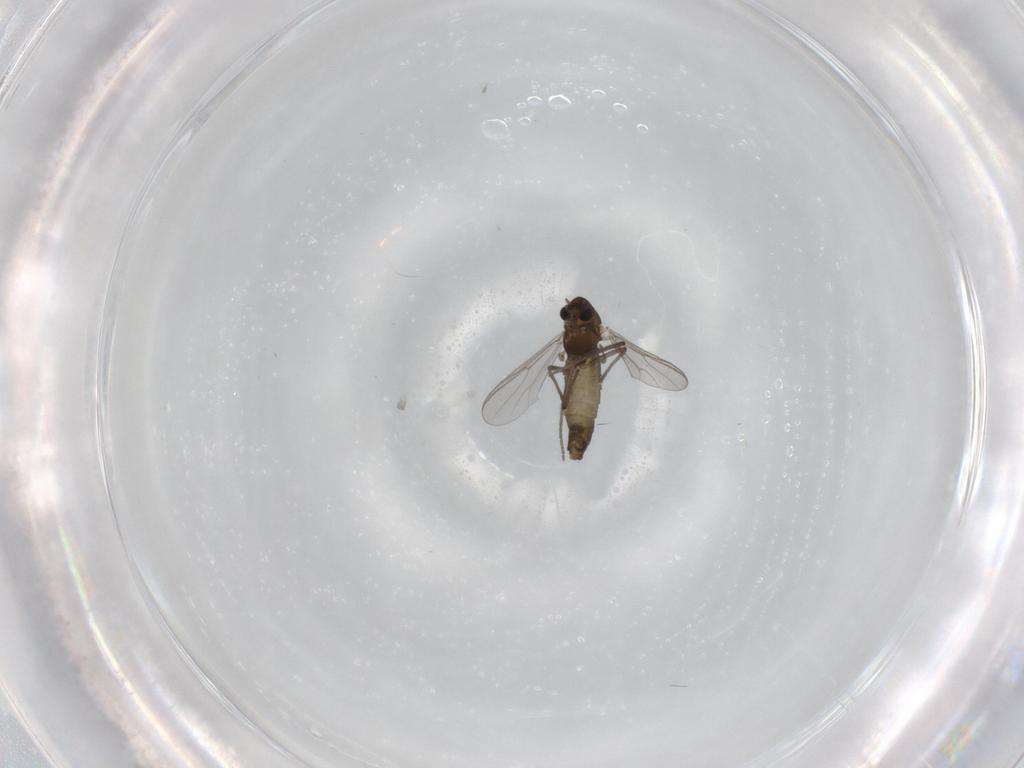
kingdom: Animalia
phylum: Arthropoda
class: Insecta
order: Diptera
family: Chironomidae
